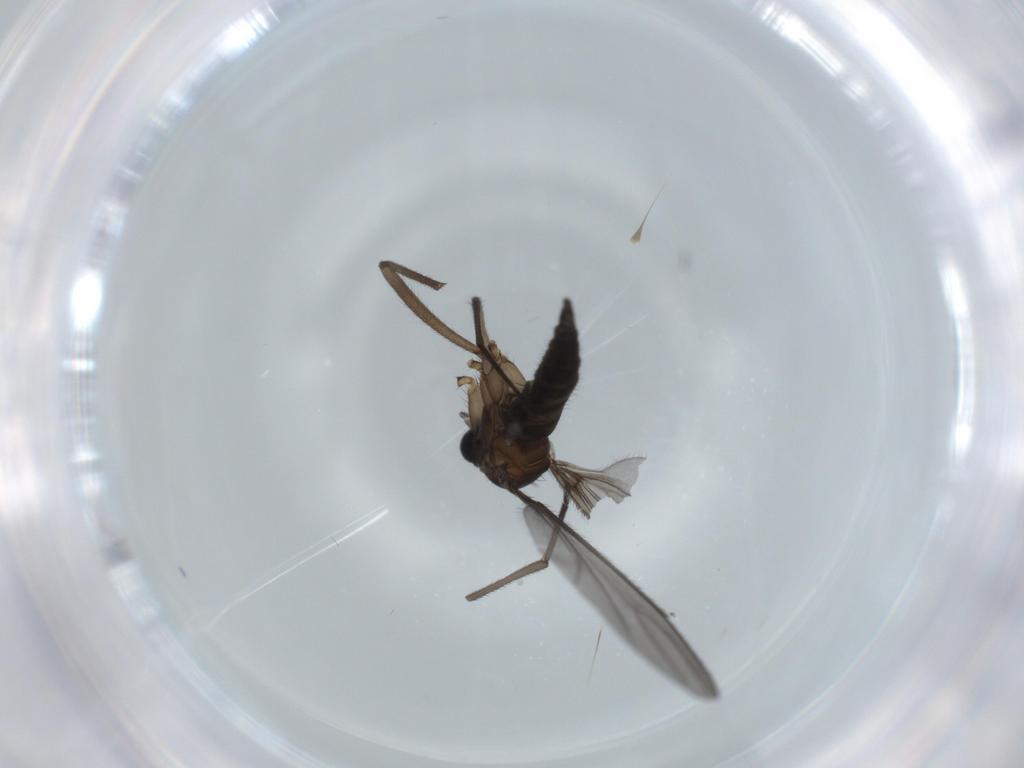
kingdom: Animalia
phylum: Arthropoda
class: Insecta
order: Diptera
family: Sciaridae
